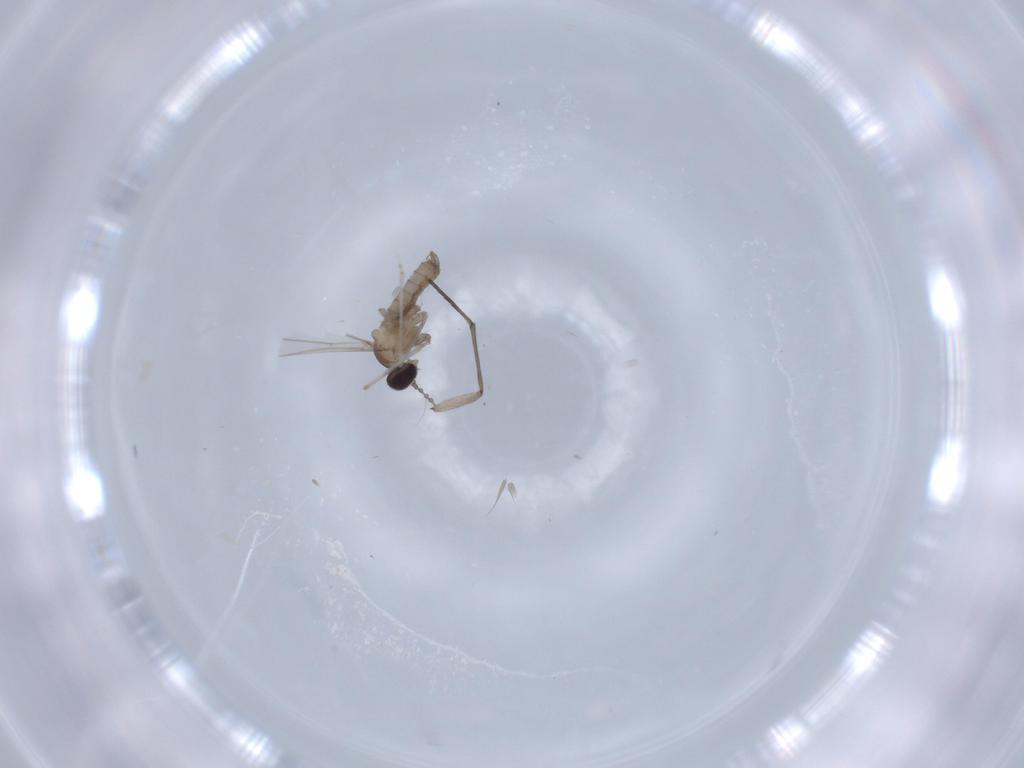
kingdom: Animalia
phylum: Arthropoda
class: Insecta
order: Diptera
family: Cecidomyiidae
